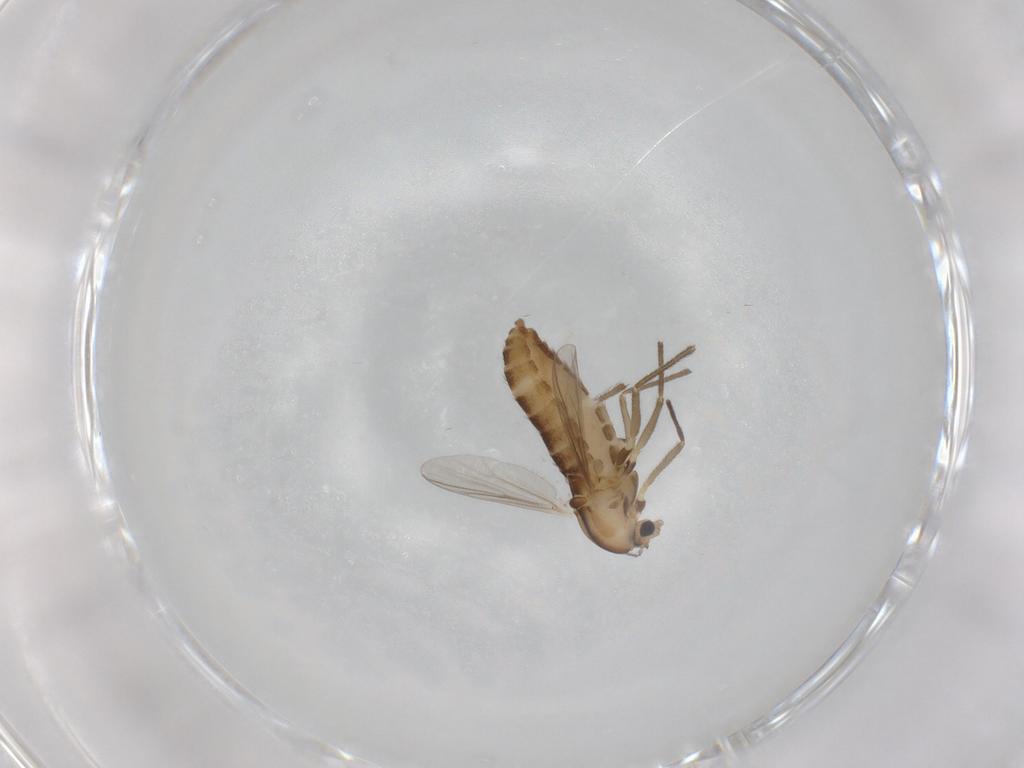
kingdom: Animalia
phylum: Arthropoda
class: Insecta
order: Diptera
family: Chironomidae
